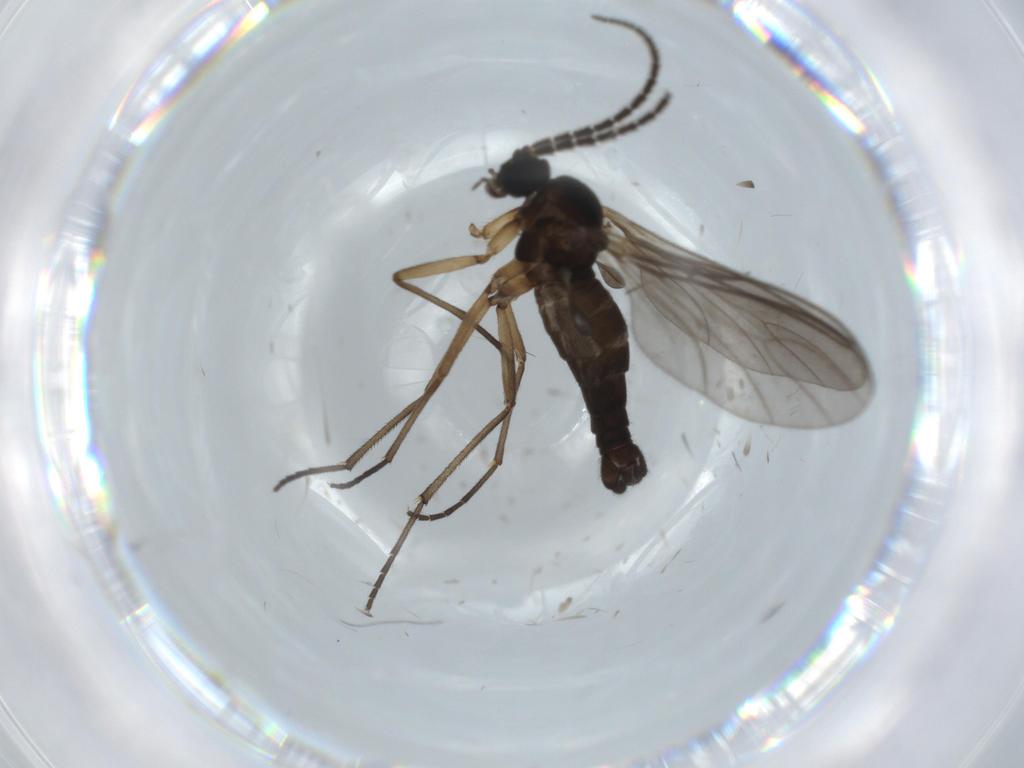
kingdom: Animalia
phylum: Arthropoda
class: Insecta
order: Diptera
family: Sciaridae
